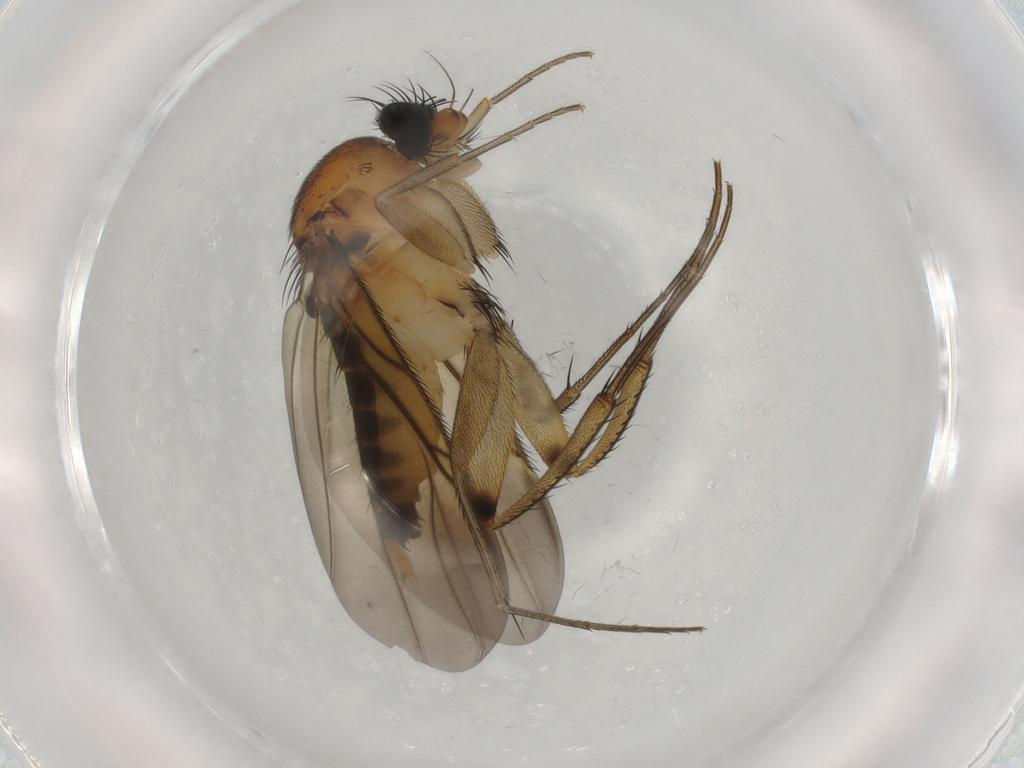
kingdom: Animalia
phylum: Arthropoda
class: Insecta
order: Diptera
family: Phoridae
